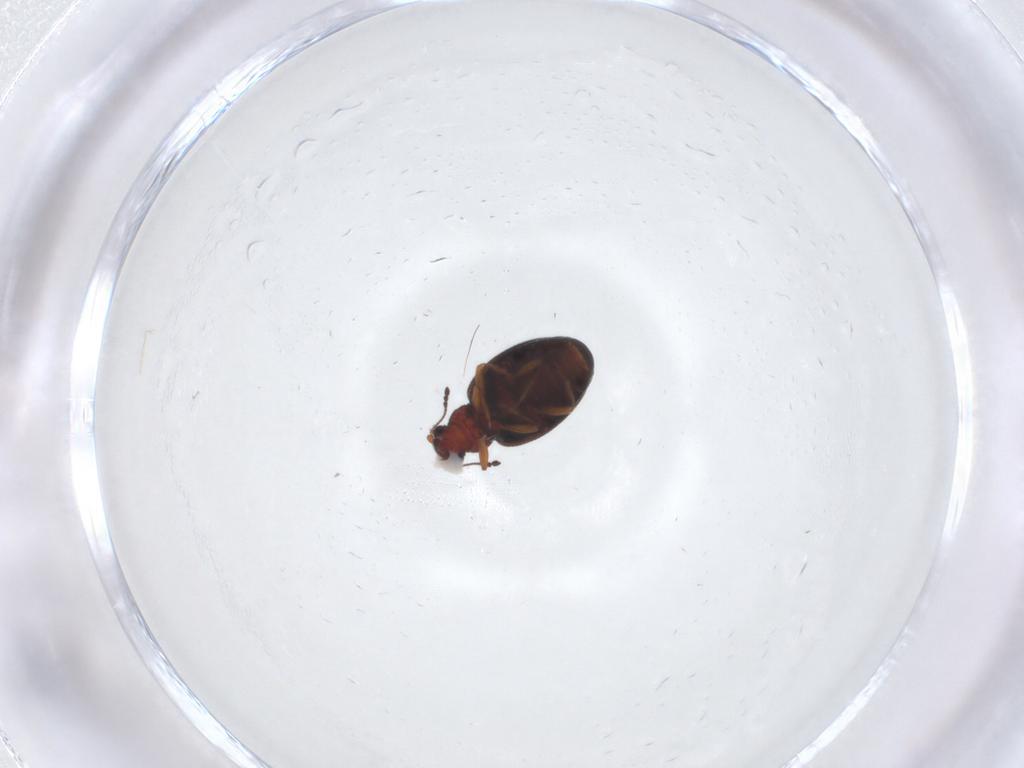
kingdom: Animalia
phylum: Arthropoda
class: Insecta
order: Coleoptera
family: Latridiidae
